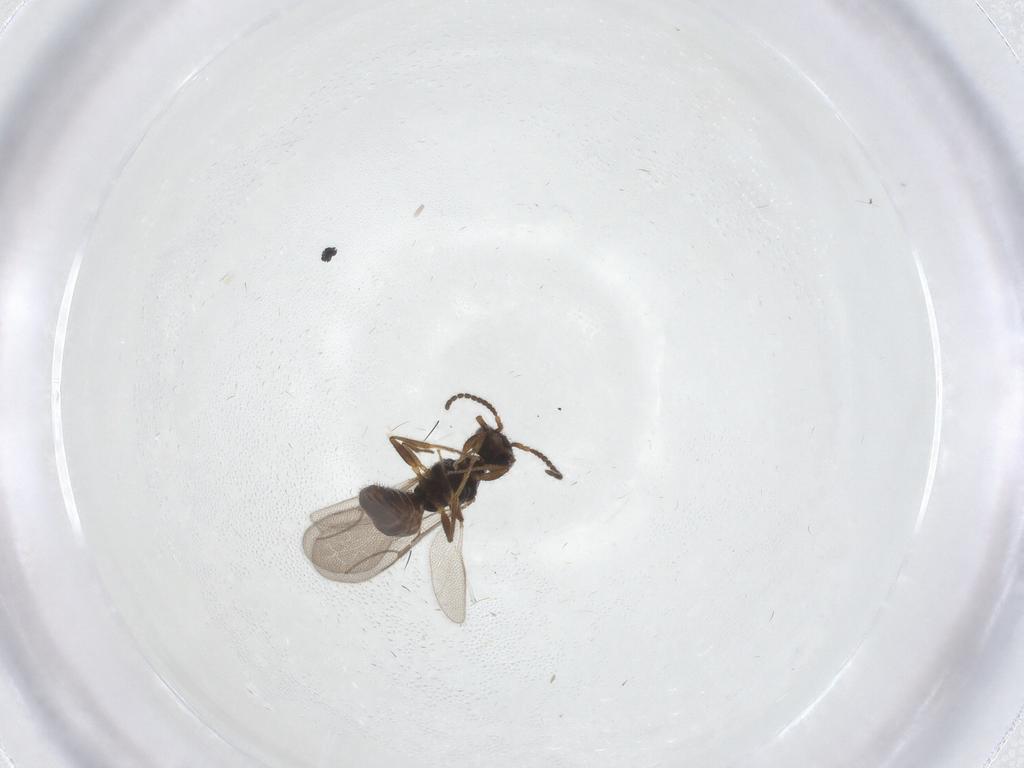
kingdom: Animalia
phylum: Arthropoda
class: Insecta
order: Hymenoptera
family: Bethylidae
